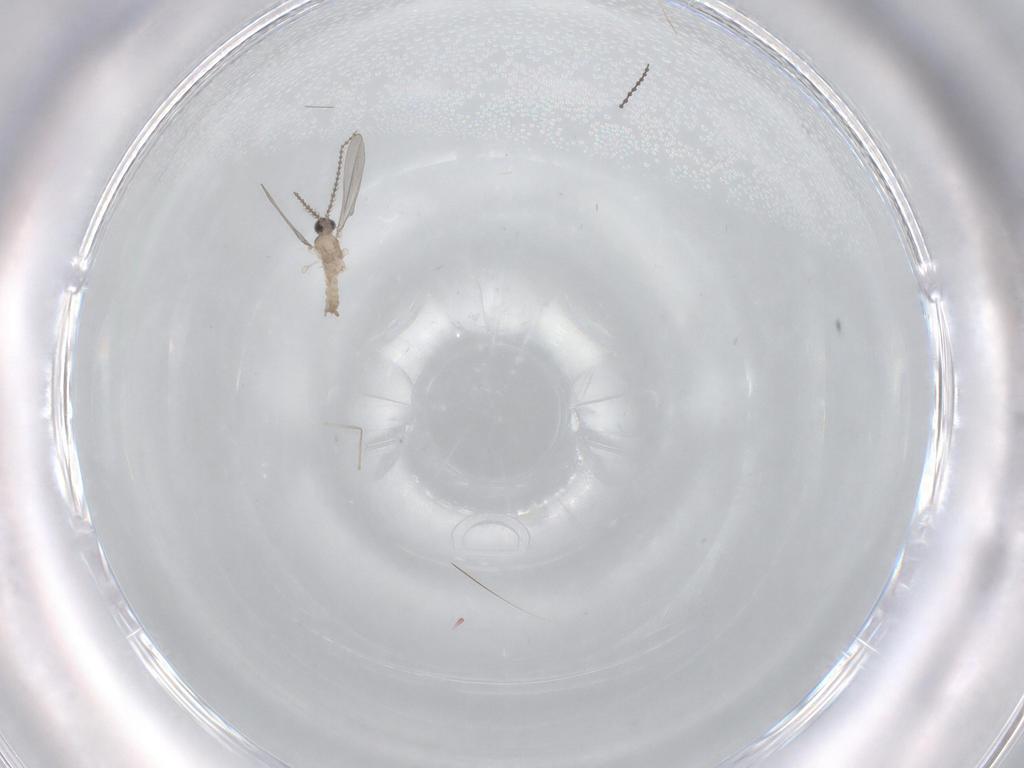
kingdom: Animalia
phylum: Arthropoda
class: Insecta
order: Diptera
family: Cecidomyiidae
